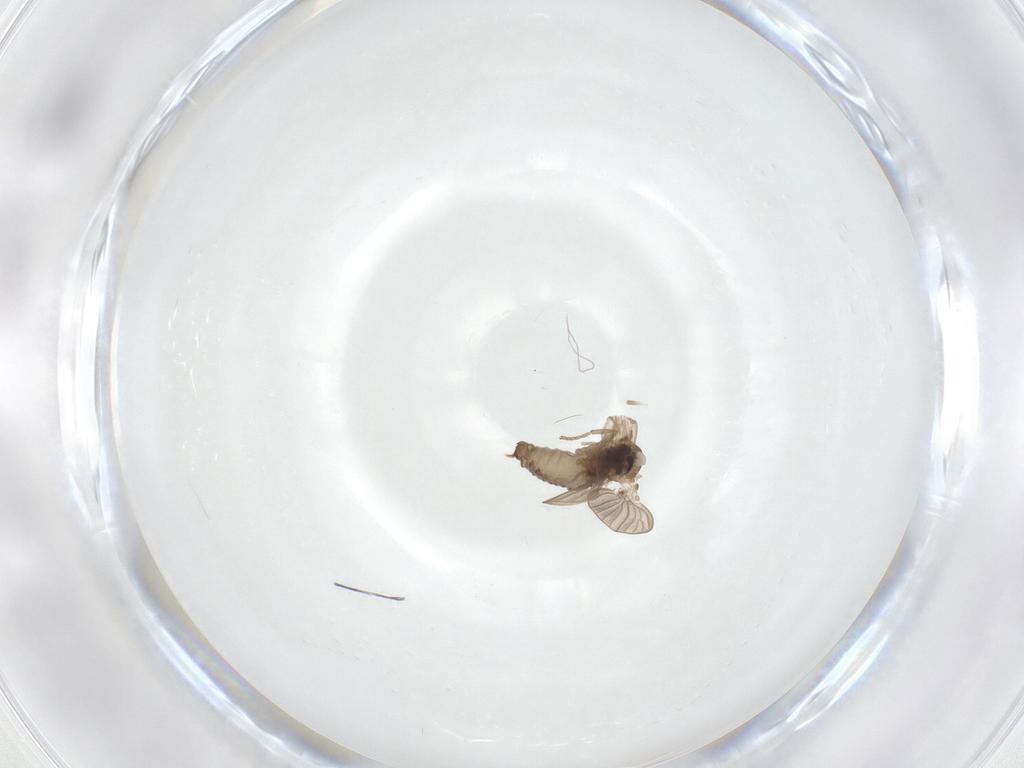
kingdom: Animalia
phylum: Arthropoda
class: Insecta
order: Diptera
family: Psychodidae
